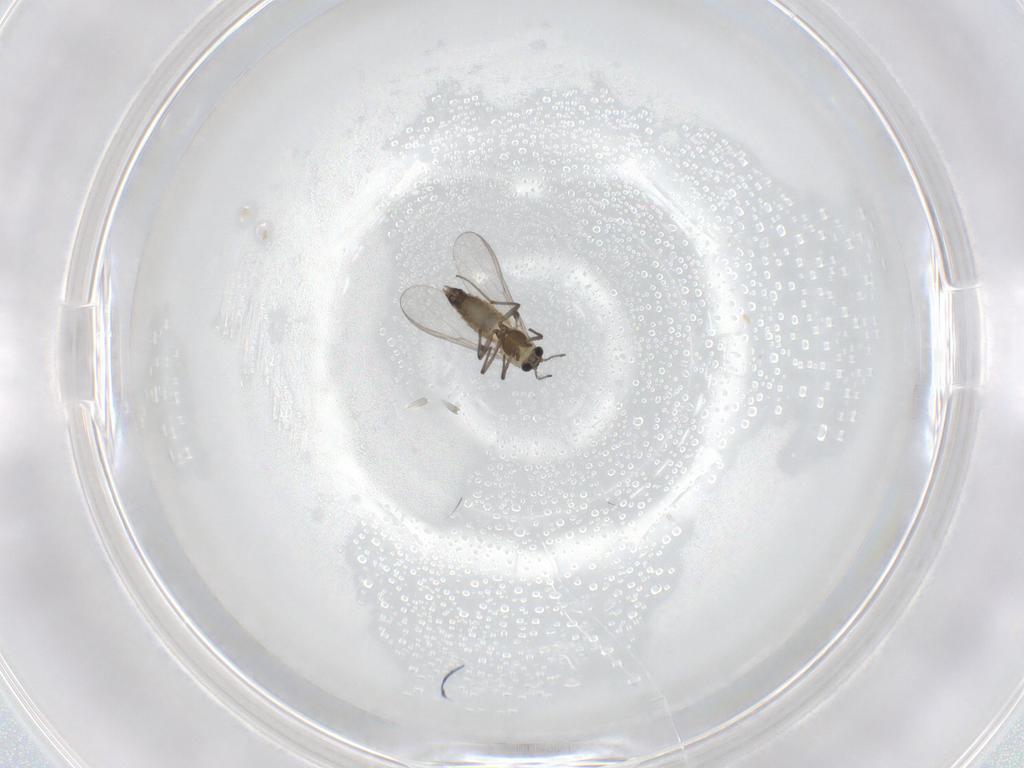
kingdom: Animalia
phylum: Arthropoda
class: Insecta
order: Diptera
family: Chironomidae
